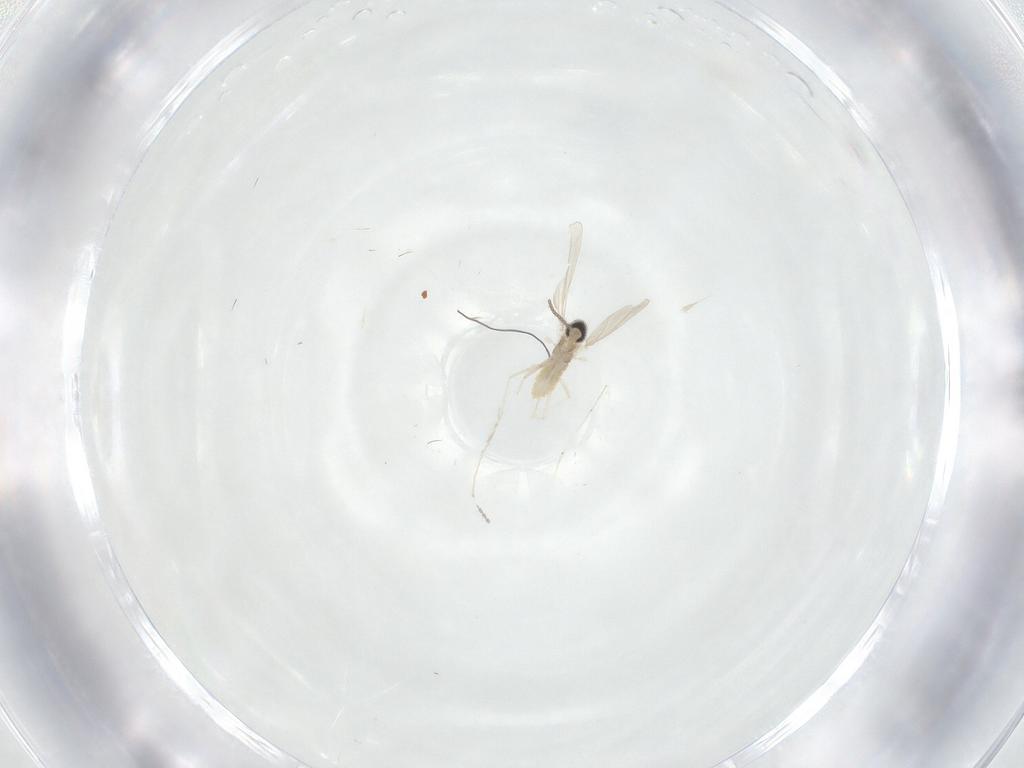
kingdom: Animalia
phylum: Arthropoda
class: Insecta
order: Diptera
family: Cecidomyiidae
